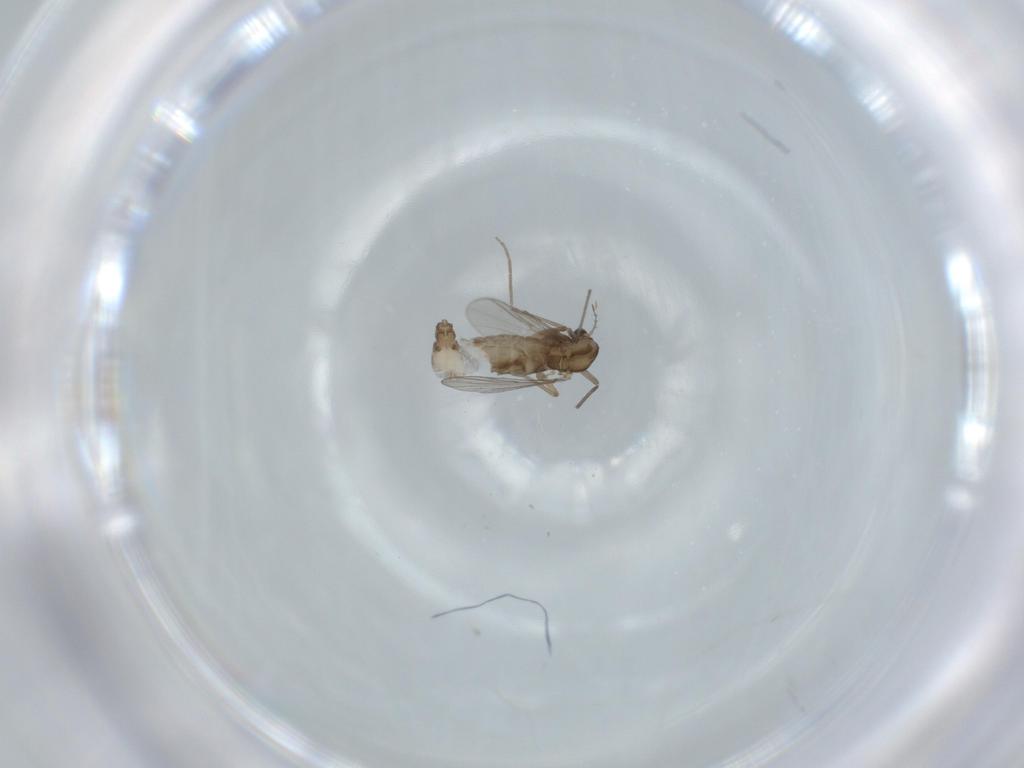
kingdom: Animalia
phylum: Arthropoda
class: Insecta
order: Diptera
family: Chironomidae
